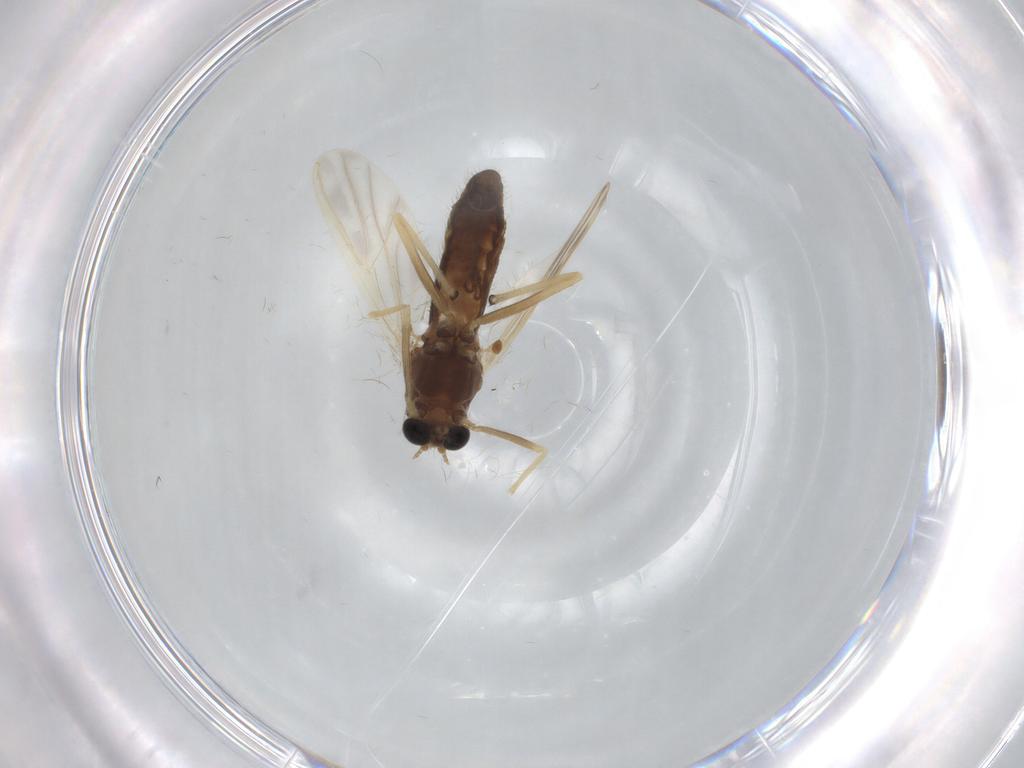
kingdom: Animalia
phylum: Arthropoda
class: Insecta
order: Diptera
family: Chironomidae
